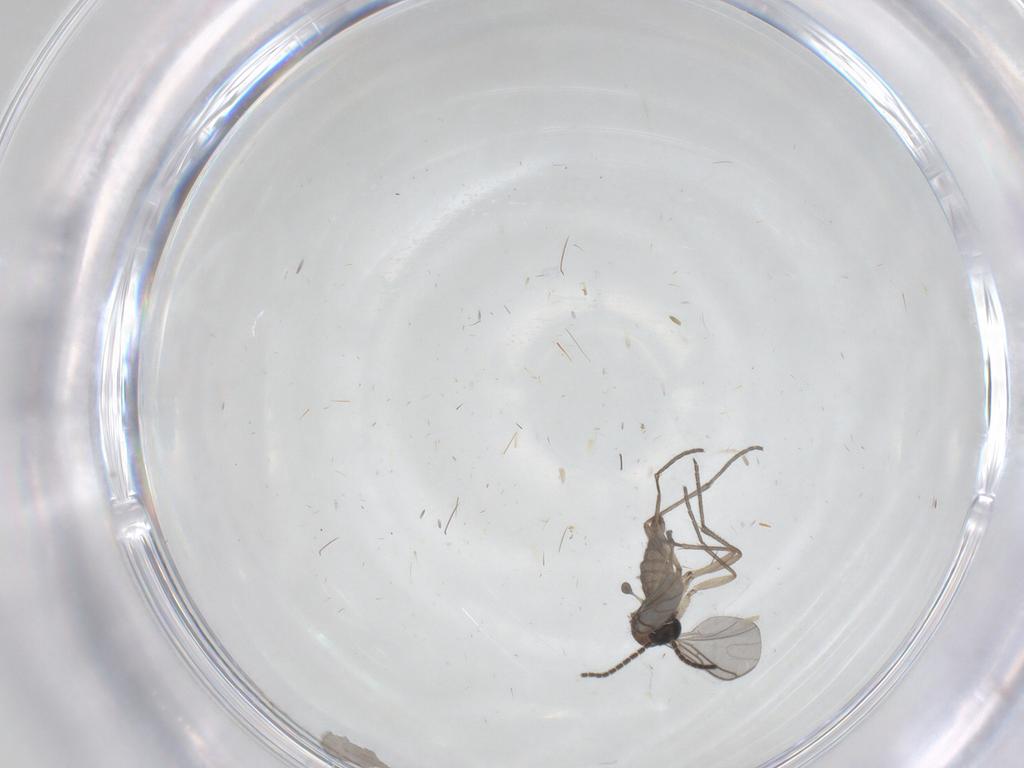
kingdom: Animalia
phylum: Arthropoda
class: Insecta
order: Diptera
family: Sciaridae
